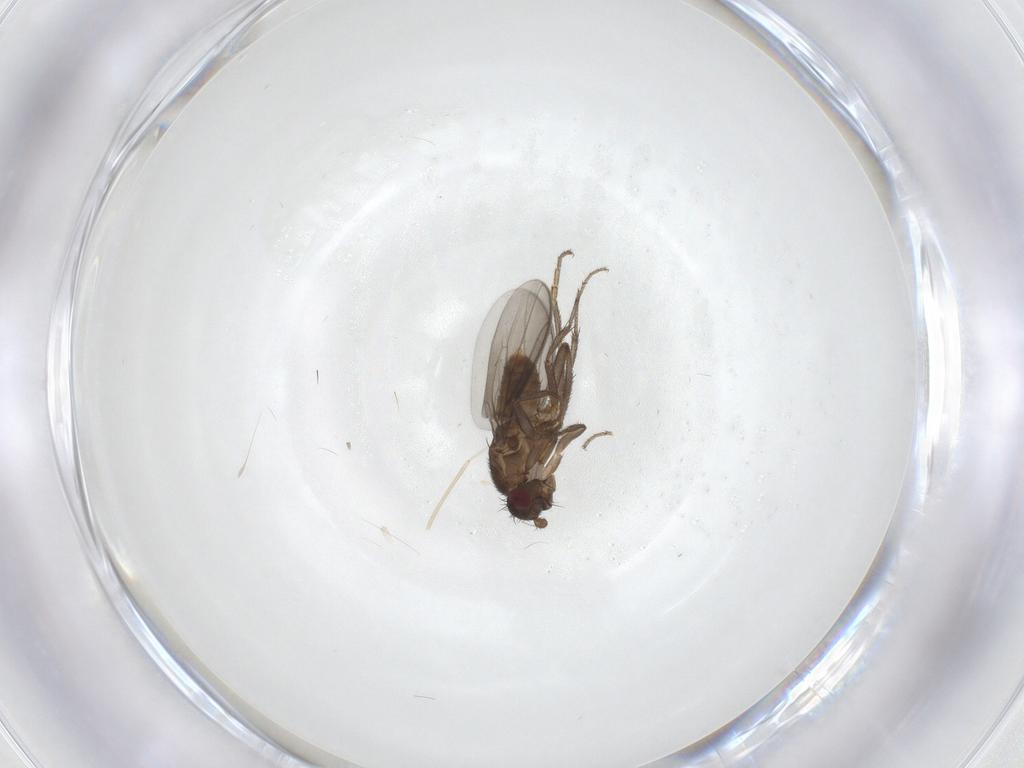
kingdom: Animalia
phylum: Arthropoda
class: Insecta
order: Diptera
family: Sphaeroceridae
